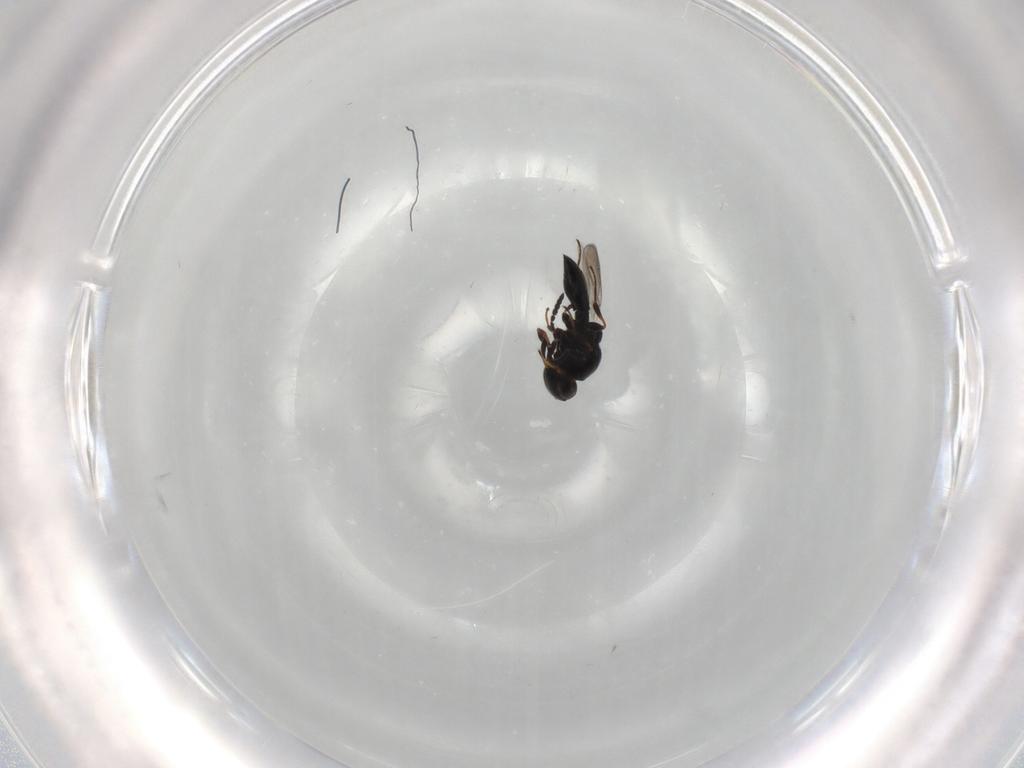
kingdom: Animalia
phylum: Arthropoda
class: Insecta
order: Hymenoptera
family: Platygastridae
